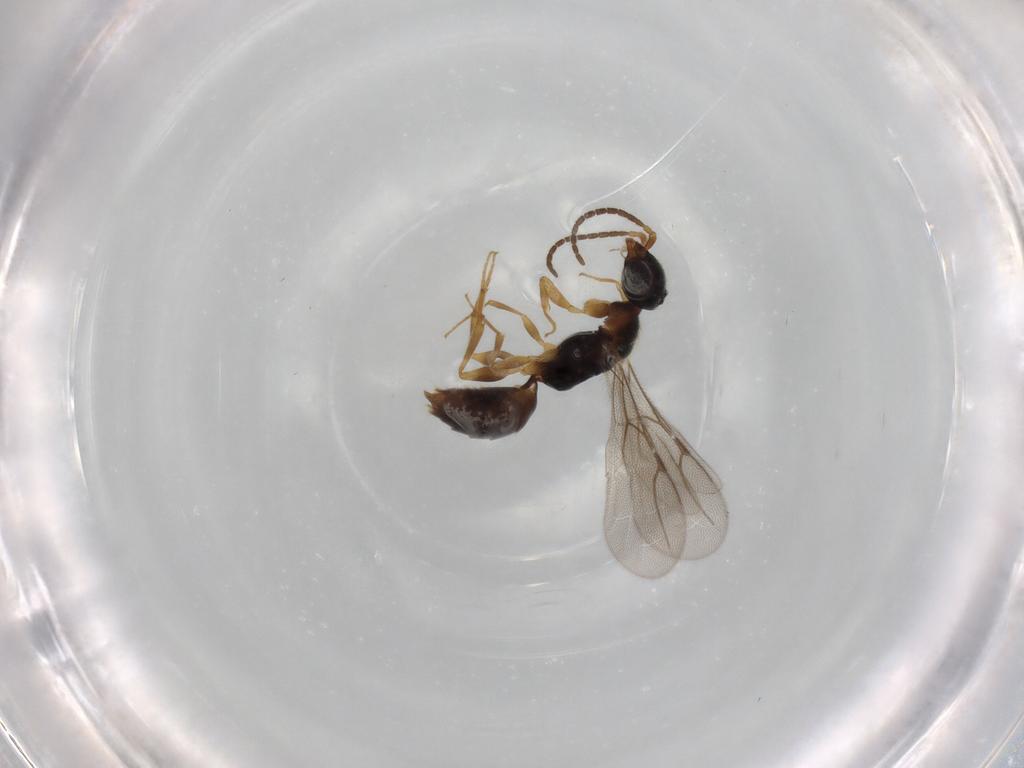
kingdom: Animalia
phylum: Arthropoda
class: Insecta
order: Hymenoptera
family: Bethylidae
